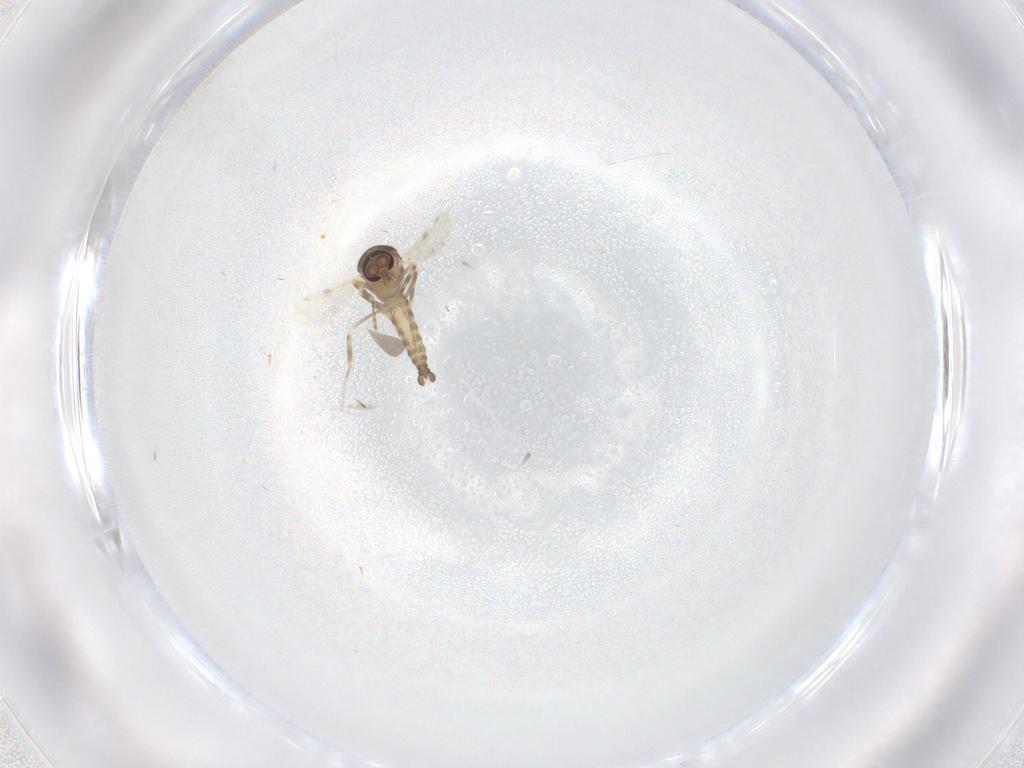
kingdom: Animalia
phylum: Arthropoda
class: Insecta
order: Diptera
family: Ceratopogonidae
